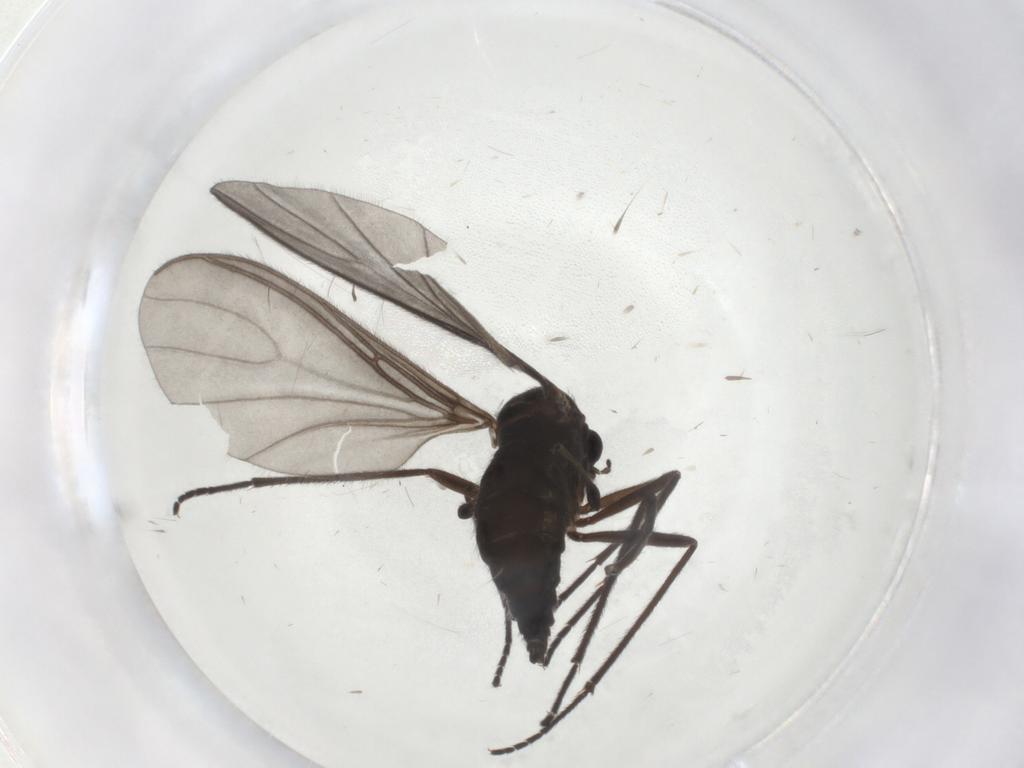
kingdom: Animalia
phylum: Arthropoda
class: Insecta
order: Diptera
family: Sciaridae
